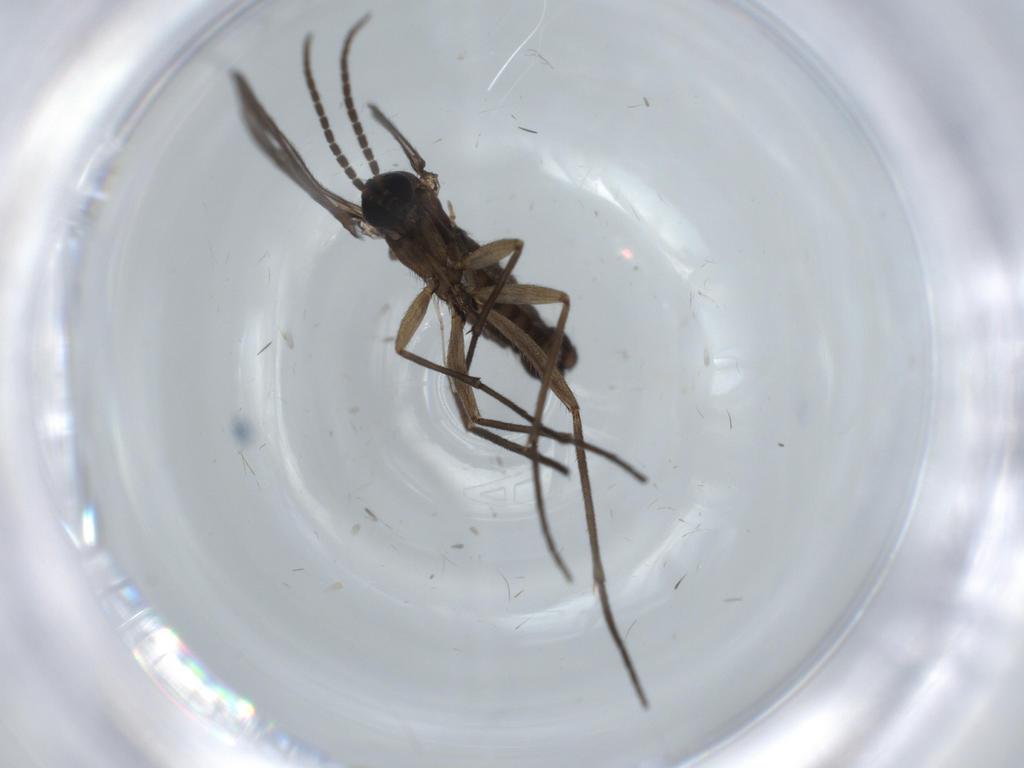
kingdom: Animalia
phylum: Arthropoda
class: Insecta
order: Diptera
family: Sciaridae
